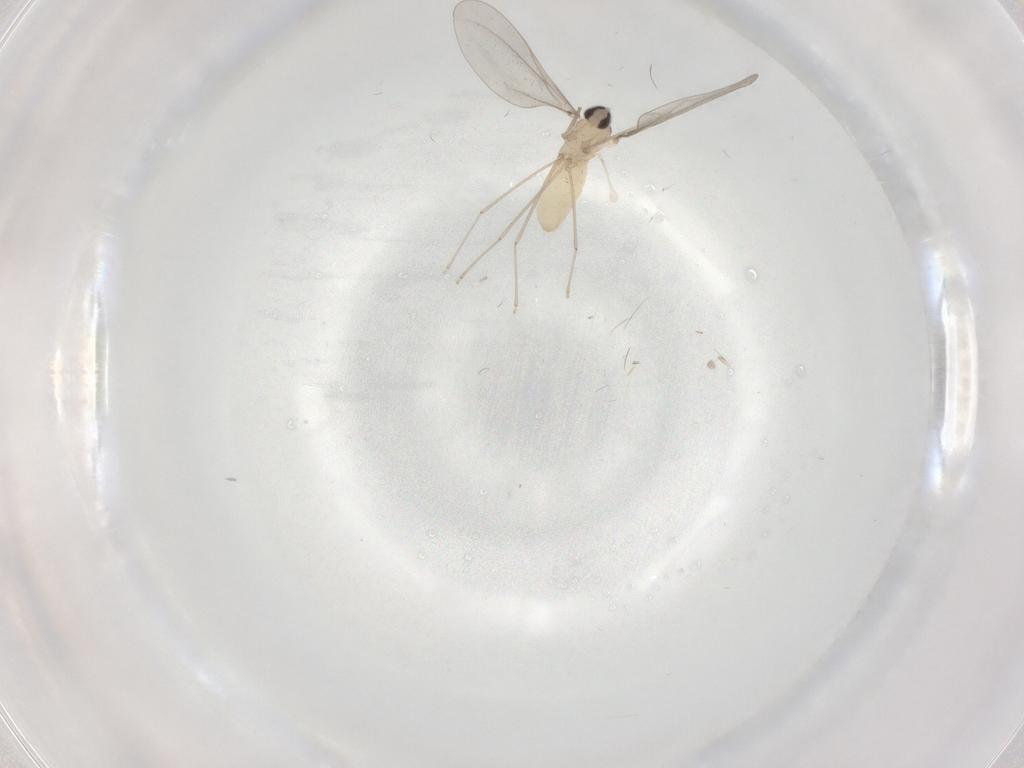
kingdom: Animalia
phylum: Arthropoda
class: Insecta
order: Diptera
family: Cecidomyiidae
